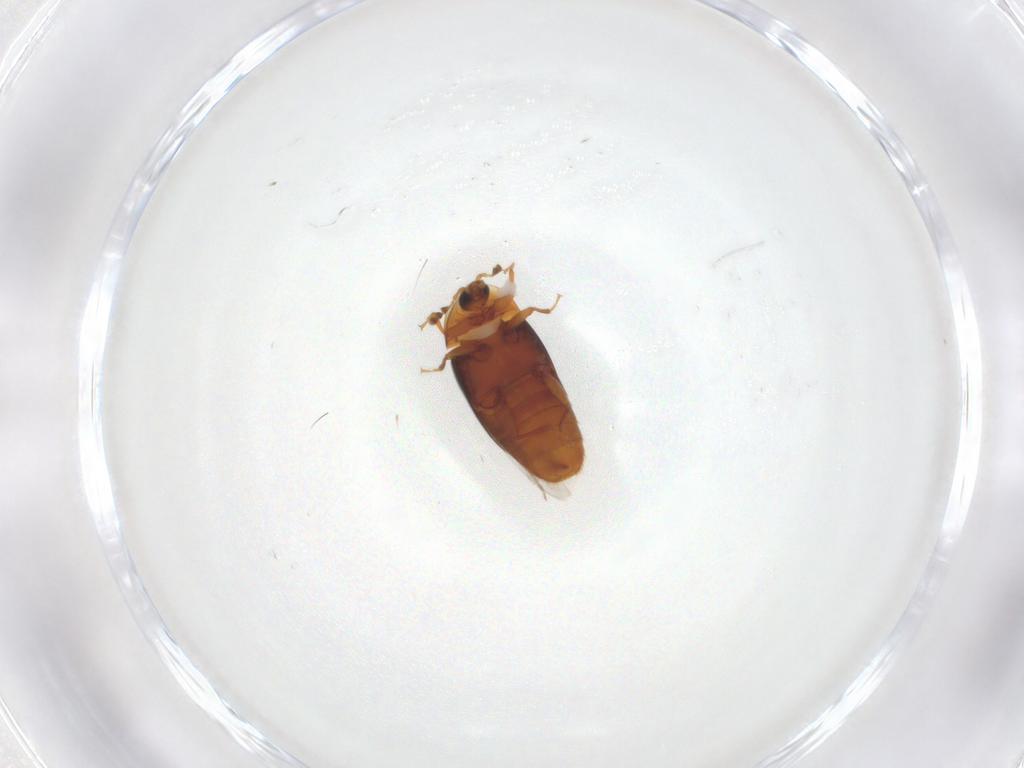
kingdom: Animalia
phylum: Arthropoda
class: Insecta
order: Coleoptera
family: Corylophidae
